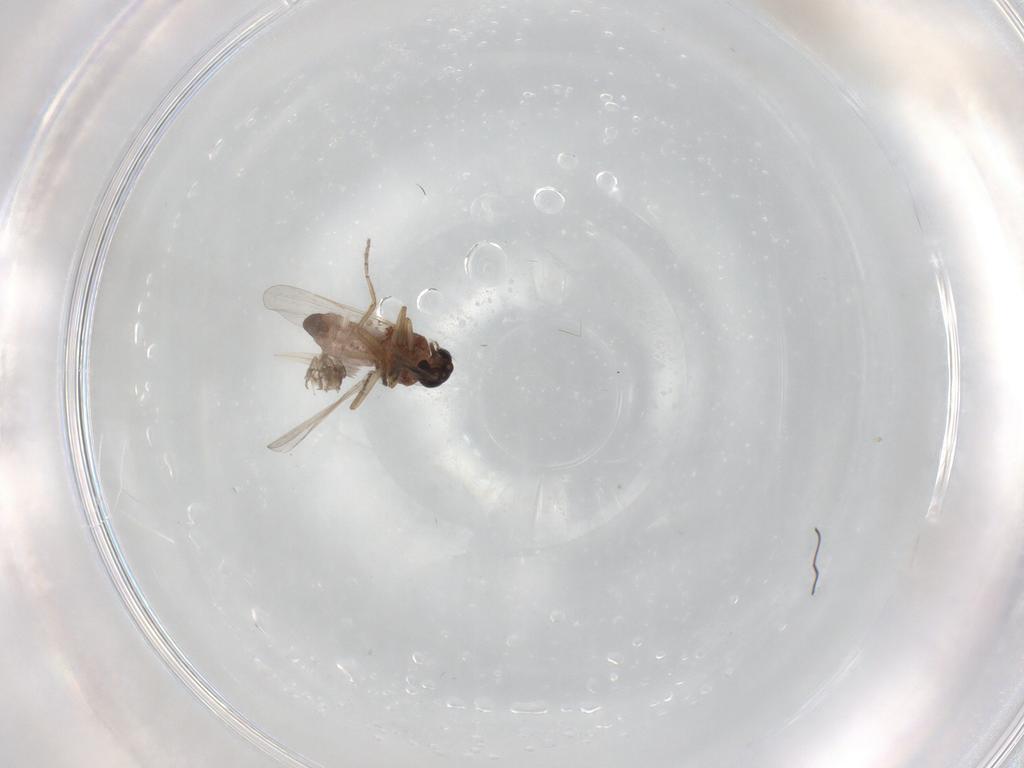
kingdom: Animalia
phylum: Arthropoda
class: Insecta
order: Diptera
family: Ceratopogonidae
